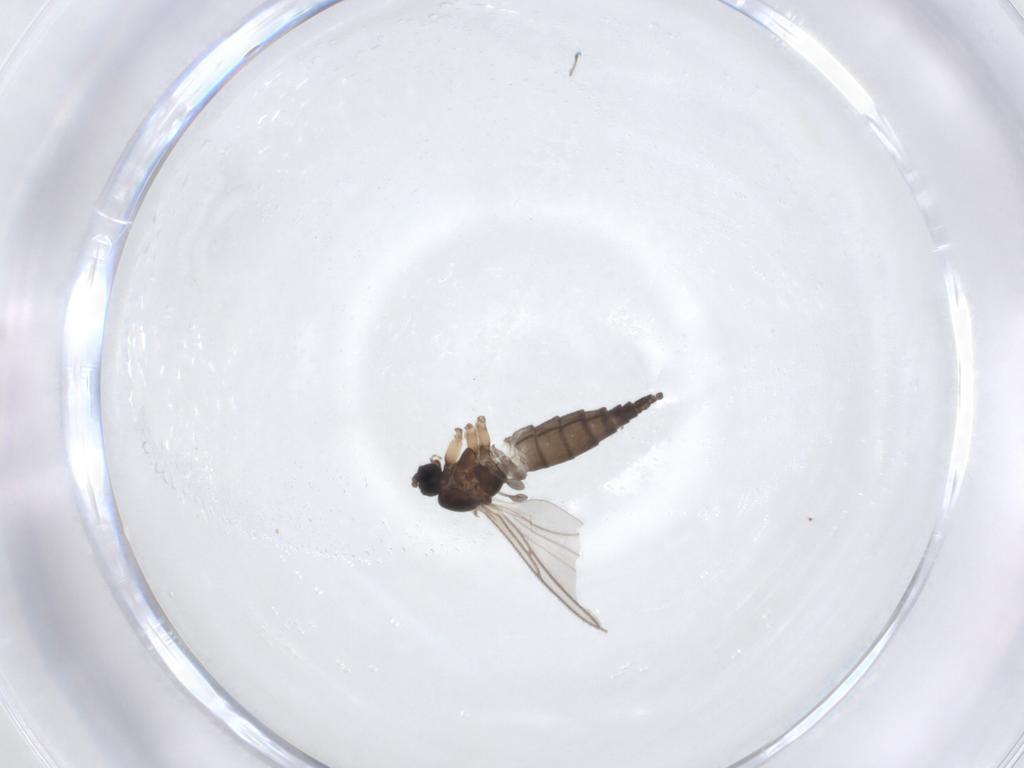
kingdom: Animalia
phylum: Arthropoda
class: Insecta
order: Diptera
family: Sciaridae
